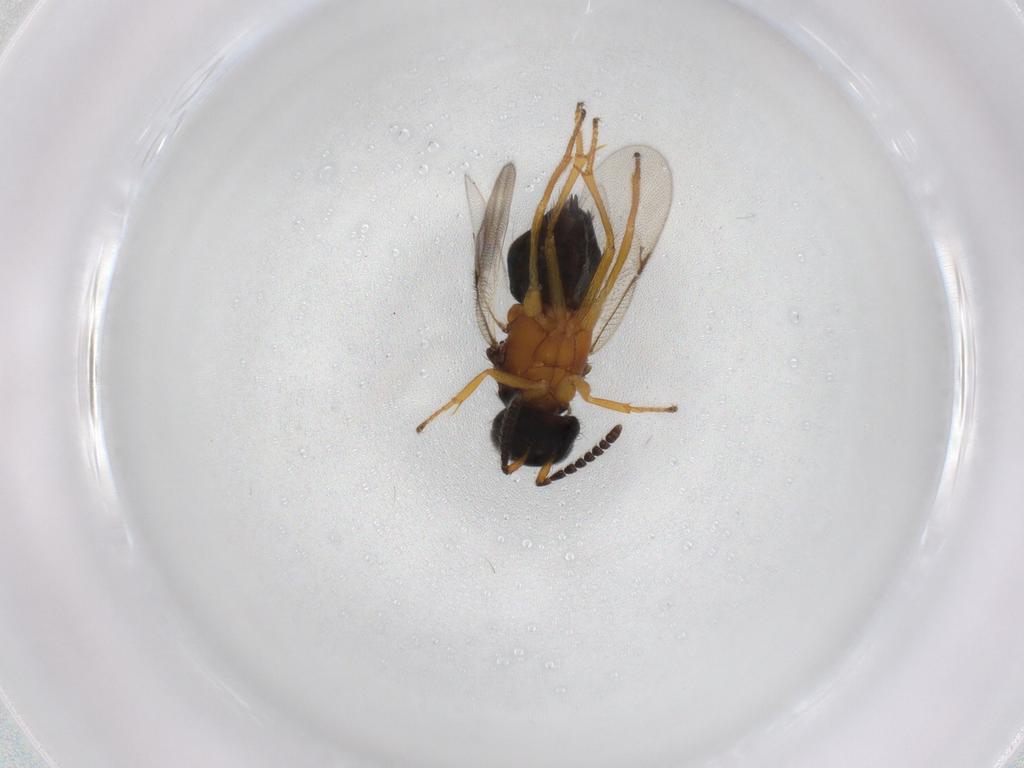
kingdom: Animalia
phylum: Arthropoda
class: Insecta
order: Hymenoptera
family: Encyrtidae
